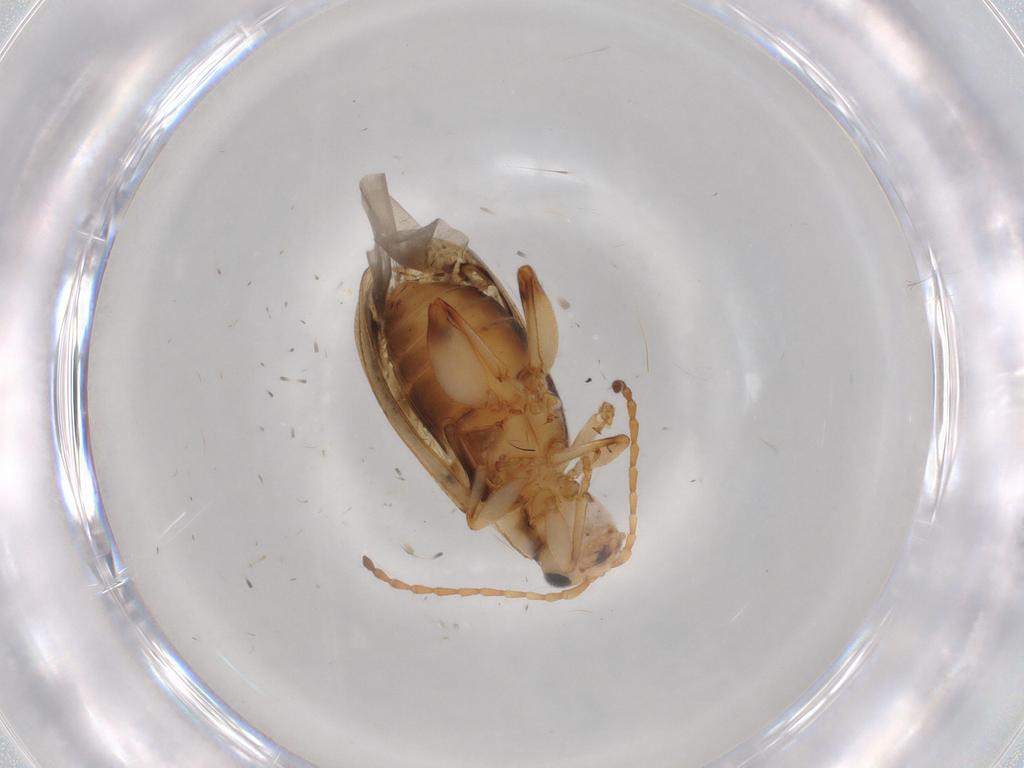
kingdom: Animalia
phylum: Arthropoda
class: Insecta
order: Coleoptera
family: Chrysomelidae
